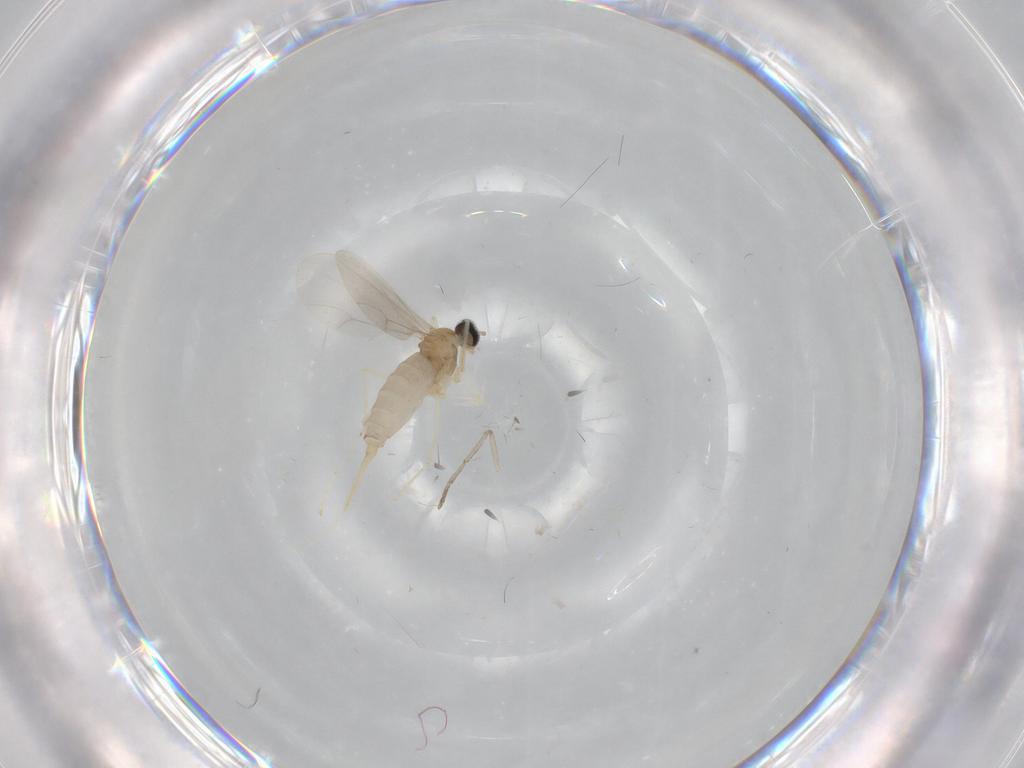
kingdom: Animalia
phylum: Arthropoda
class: Insecta
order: Diptera
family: Cecidomyiidae
